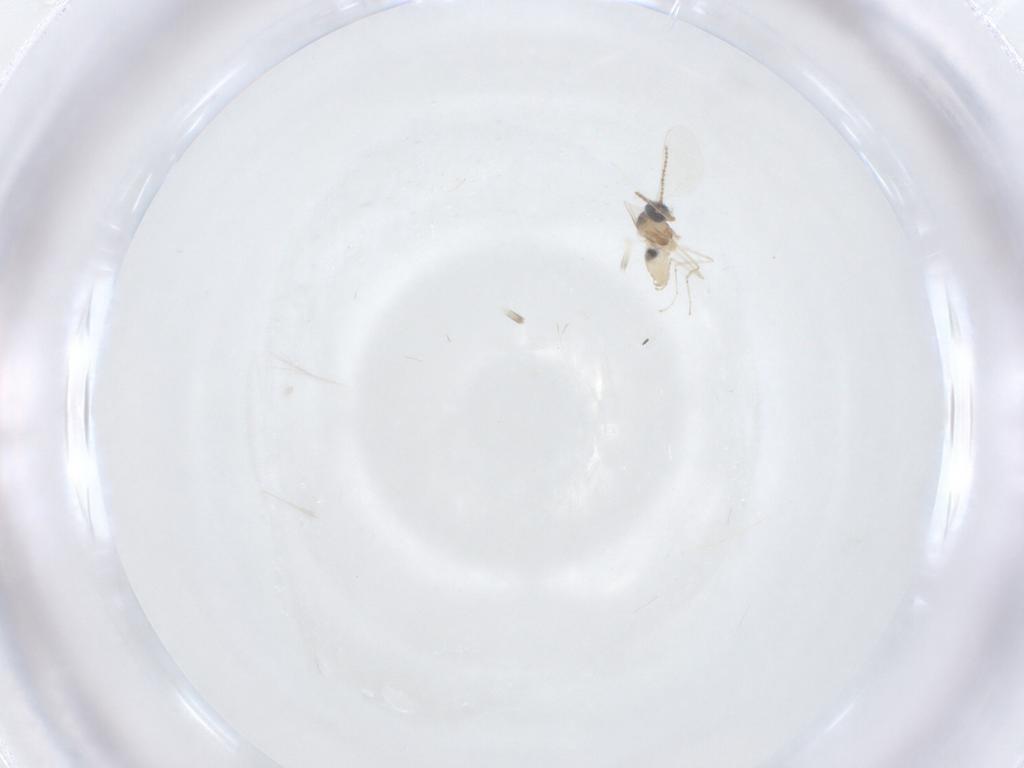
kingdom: Animalia
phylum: Arthropoda
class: Insecta
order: Diptera
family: Cecidomyiidae
